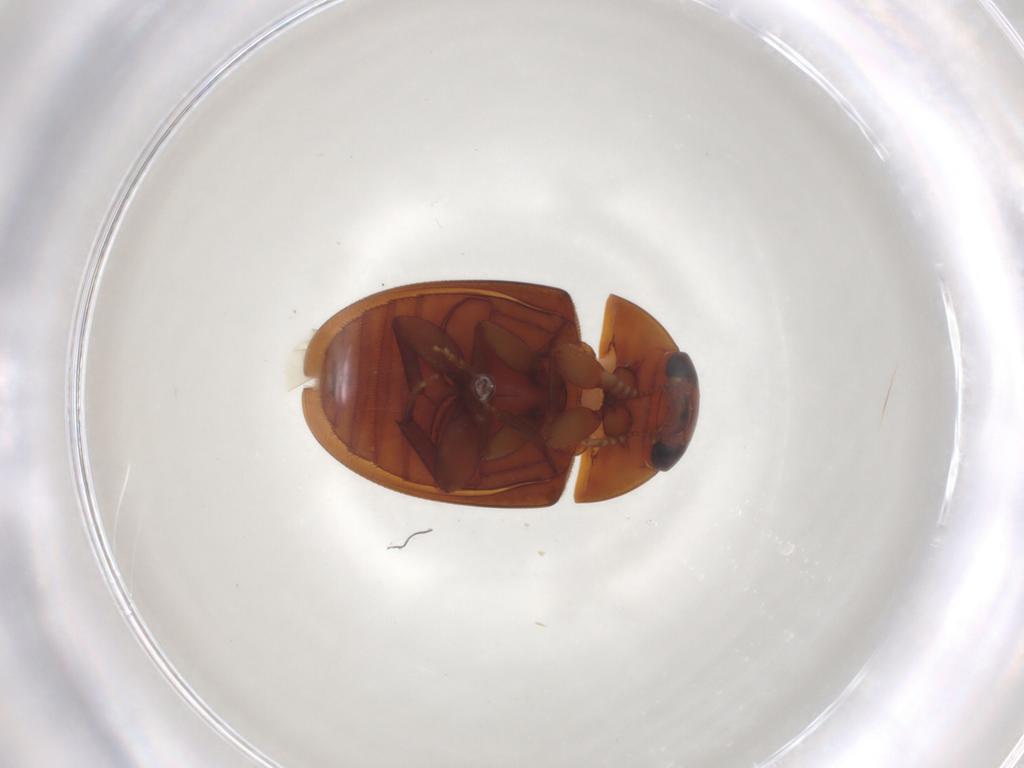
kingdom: Animalia
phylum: Arthropoda
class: Insecta
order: Coleoptera
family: Phalacridae
